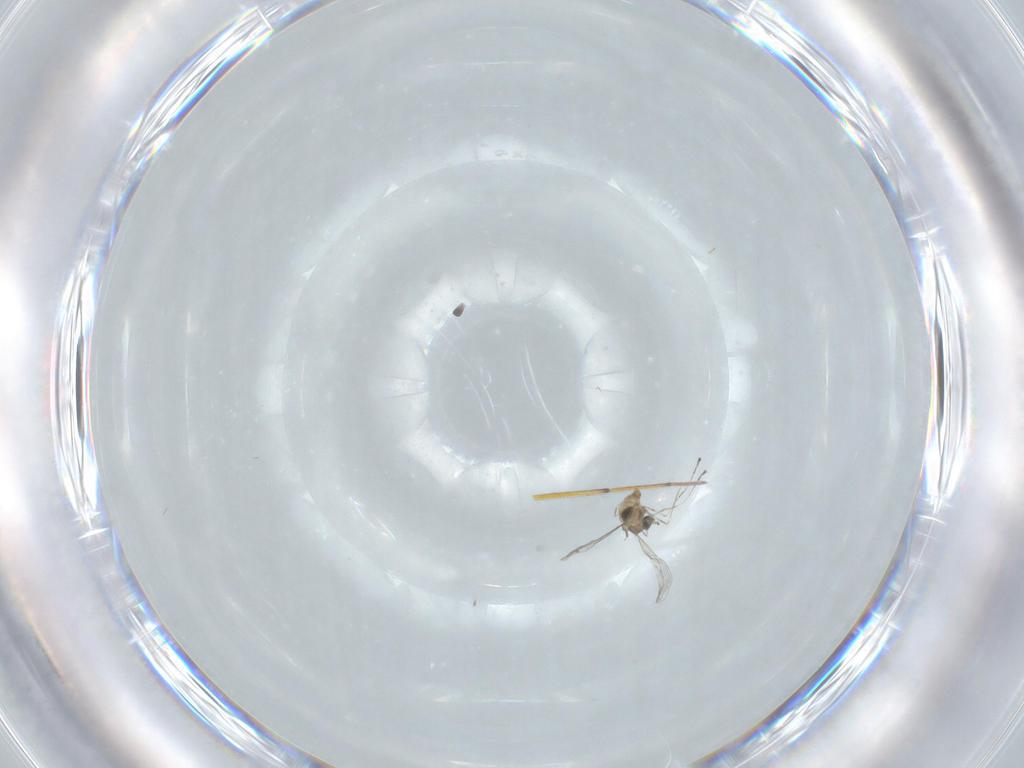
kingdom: Animalia
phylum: Arthropoda
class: Insecta
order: Diptera
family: Cecidomyiidae
